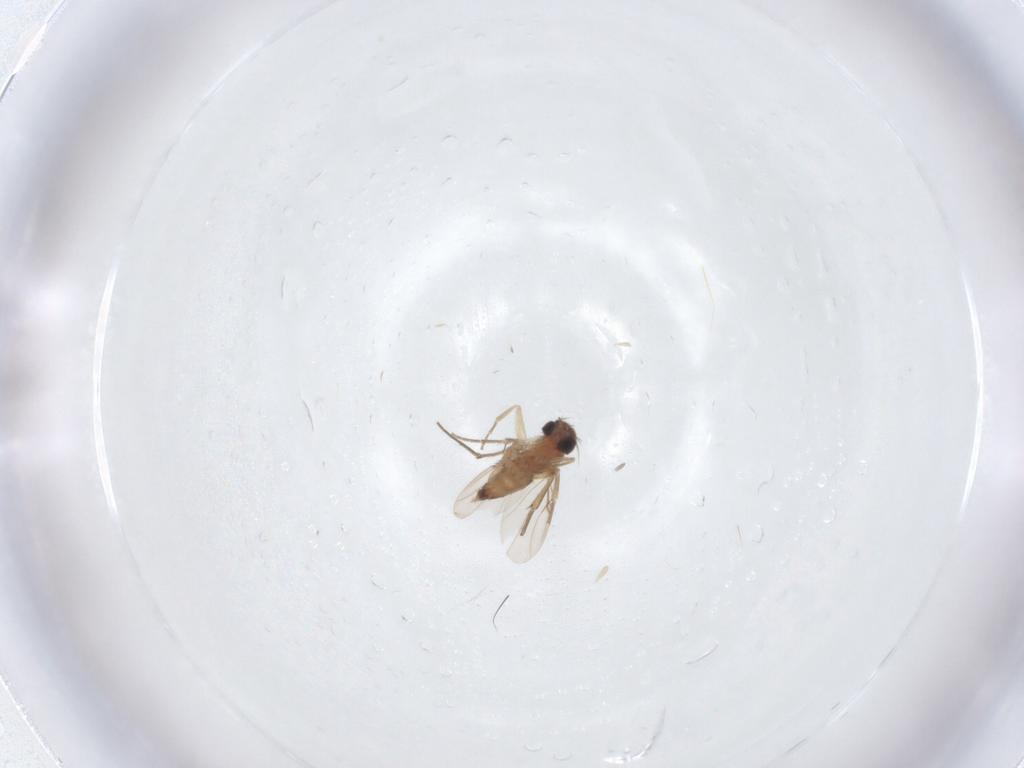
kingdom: Animalia
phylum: Arthropoda
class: Insecta
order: Diptera
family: Phoridae
